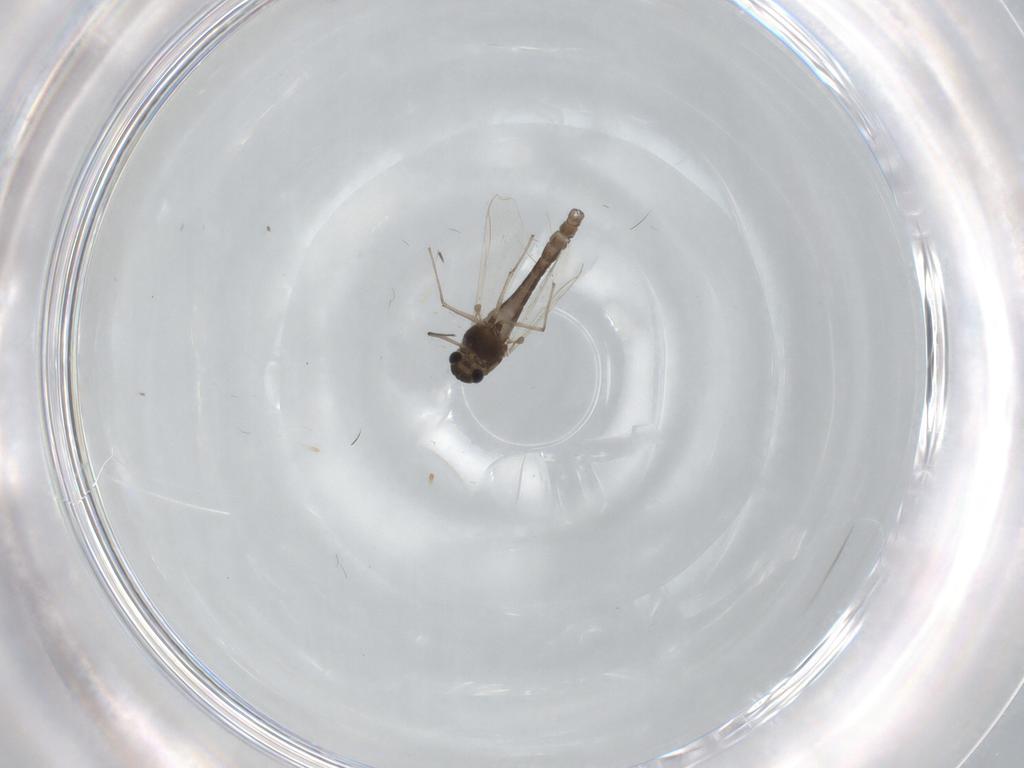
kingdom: Animalia
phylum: Arthropoda
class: Insecta
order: Diptera
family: Chironomidae
